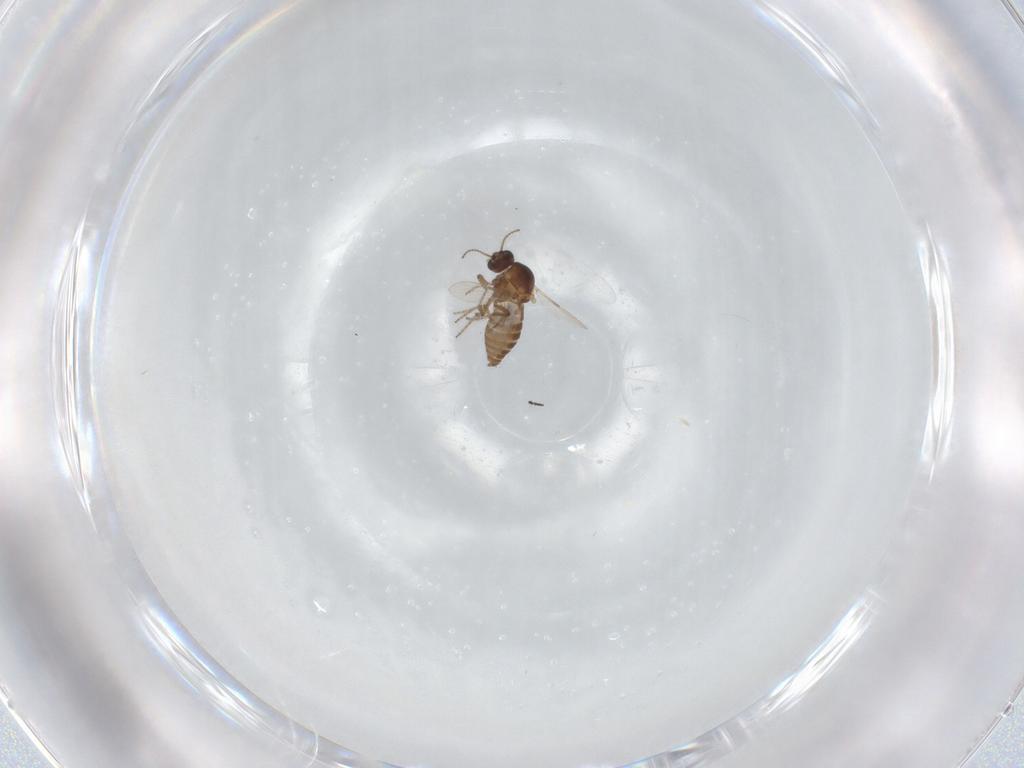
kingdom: Animalia
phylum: Arthropoda
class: Insecta
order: Diptera
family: Ceratopogonidae
